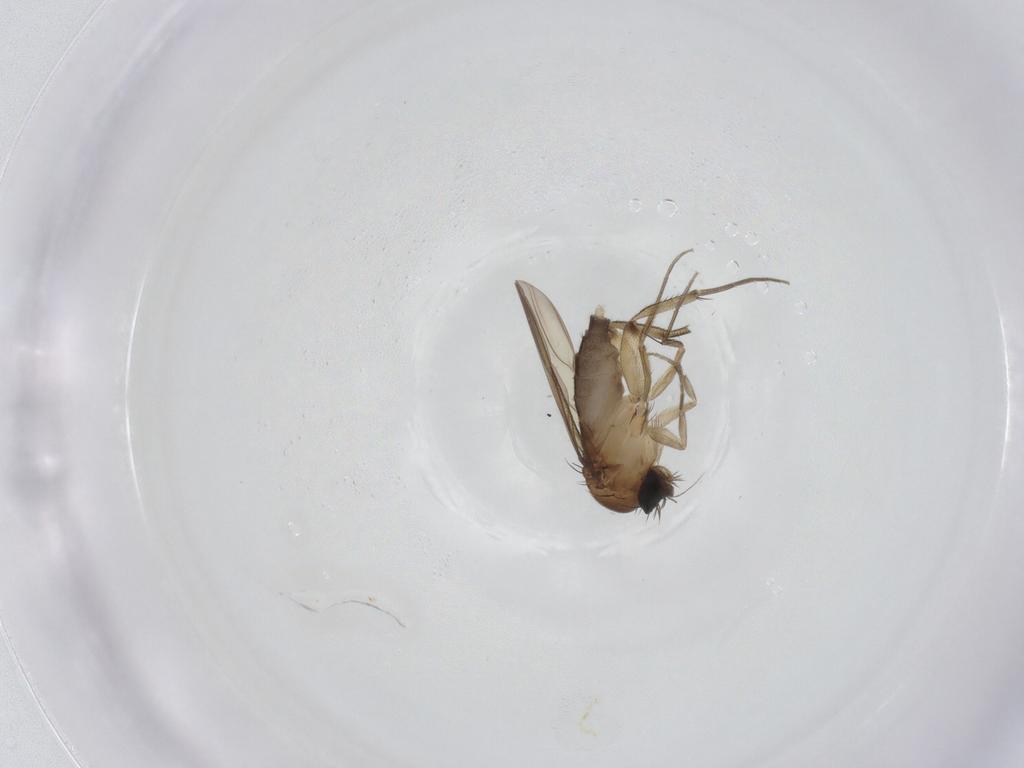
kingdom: Animalia
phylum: Arthropoda
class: Insecta
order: Diptera
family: Phoridae
